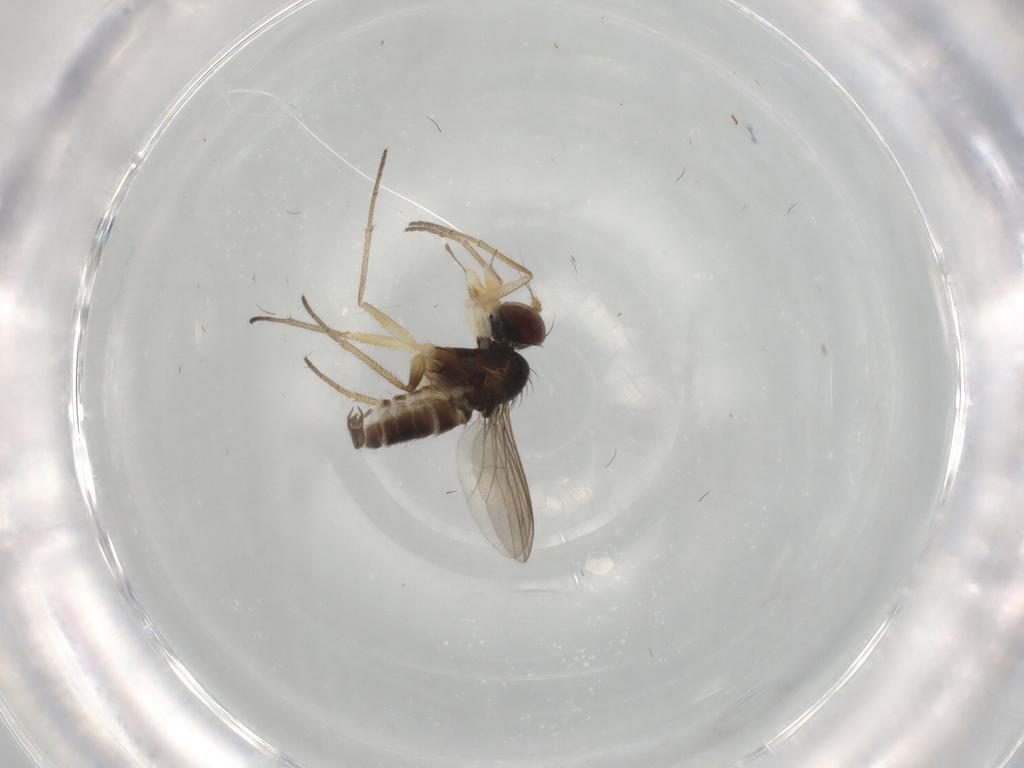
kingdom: Animalia
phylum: Arthropoda
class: Insecta
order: Diptera
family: Dolichopodidae
